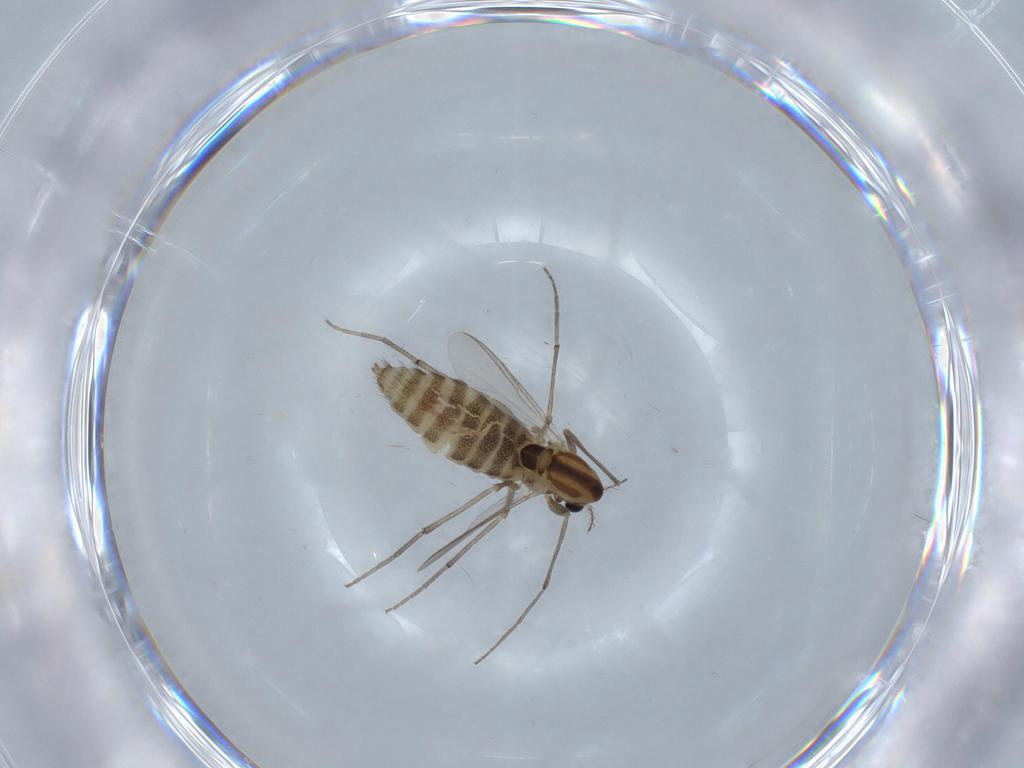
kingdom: Animalia
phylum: Arthropoda
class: Insecta
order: Diptera
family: Chironomidae
